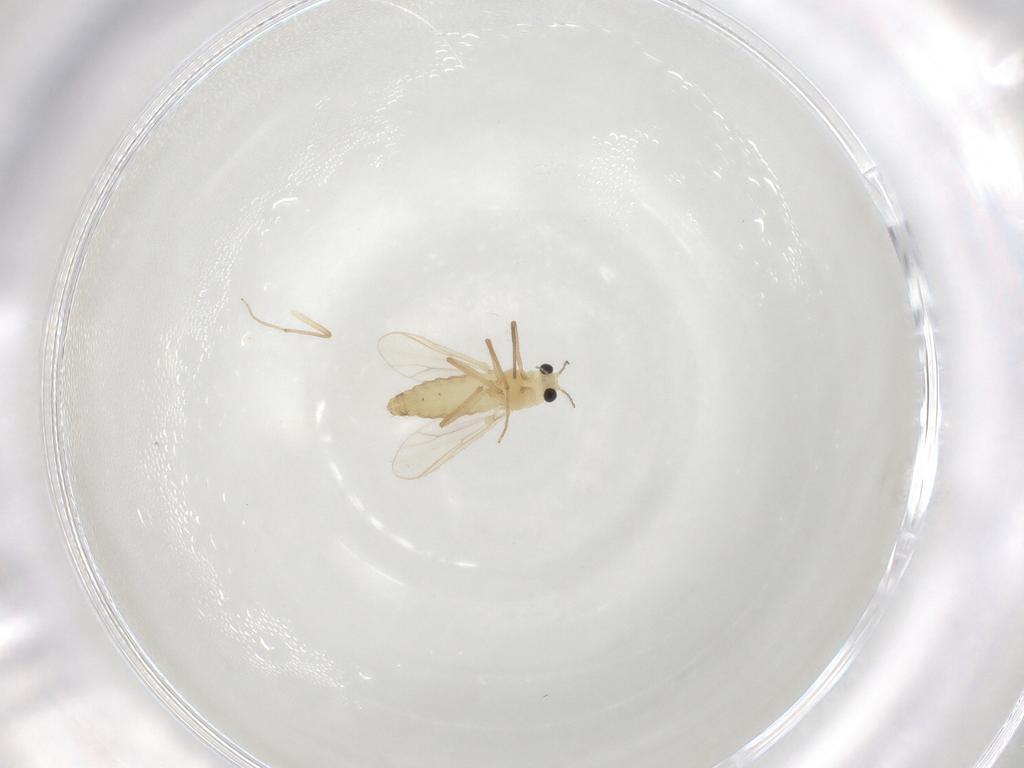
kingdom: Animalia
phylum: Arthropoda
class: Insecta
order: Diptera
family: Chironomidae
